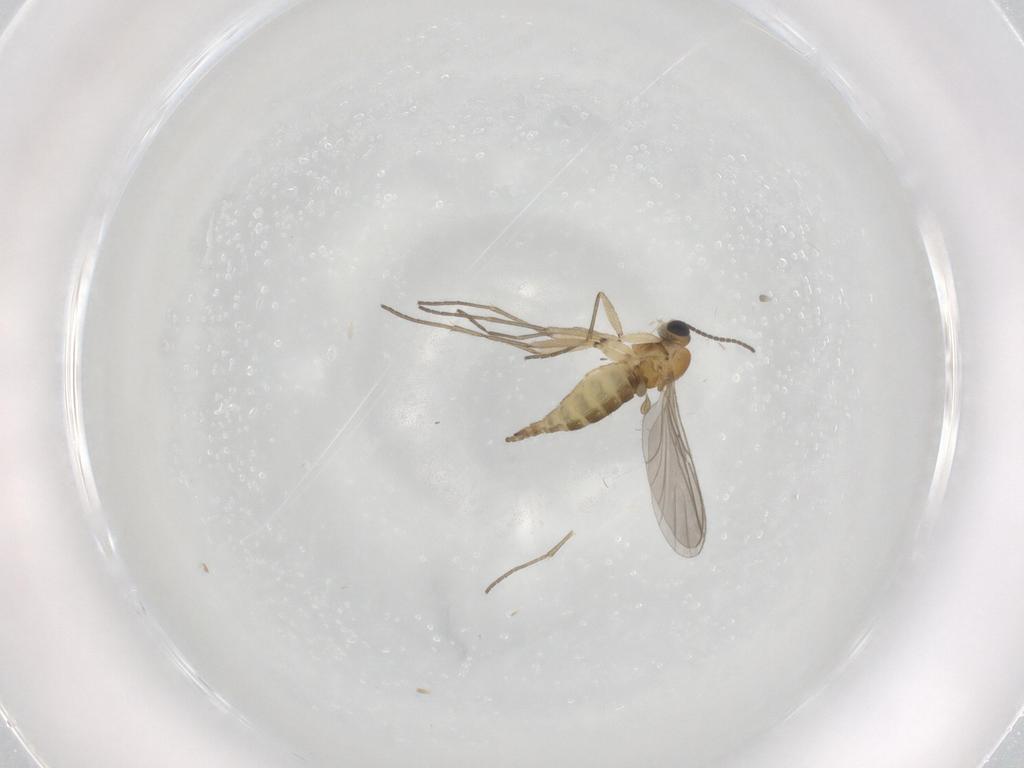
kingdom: Animalia
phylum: Arthropoda
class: Insecta
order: Diptera
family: Sciaridae
